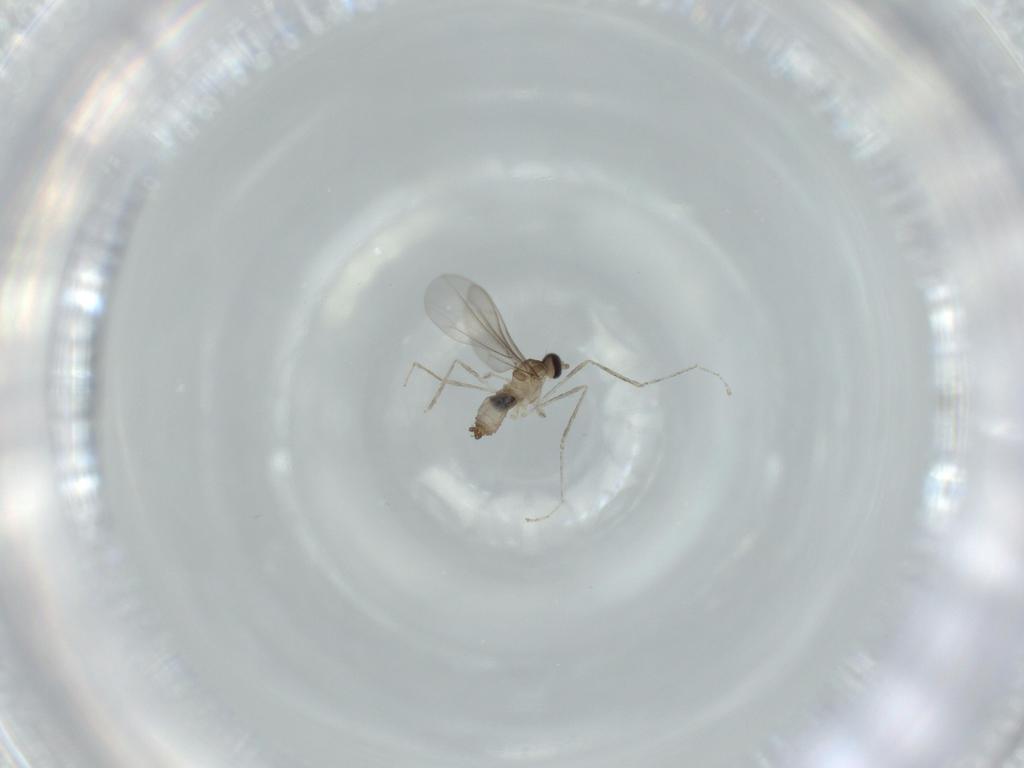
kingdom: Animalia
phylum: Arthropoda
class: Insecta
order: Diptera
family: Cecidomyiidae
